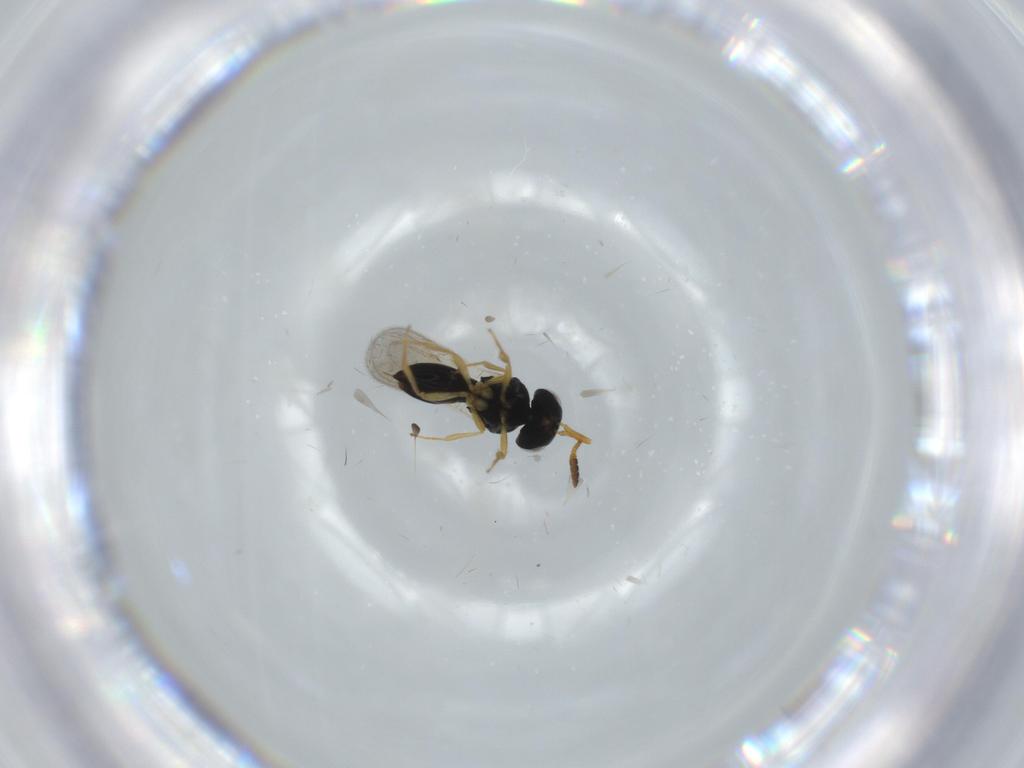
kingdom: Animalia
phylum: Arthropoda
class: Insecta
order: Hymenoptera
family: Scelionidae
